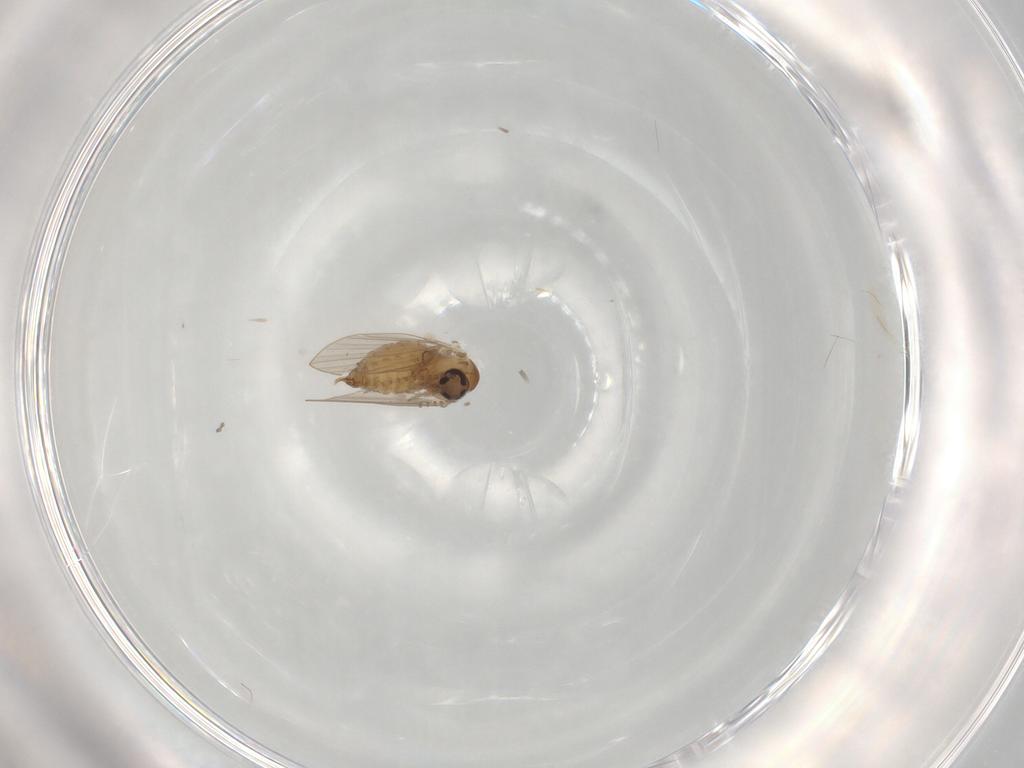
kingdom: Animalia
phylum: Arthropoda
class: Insecta
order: Diptera
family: Psychodidae
